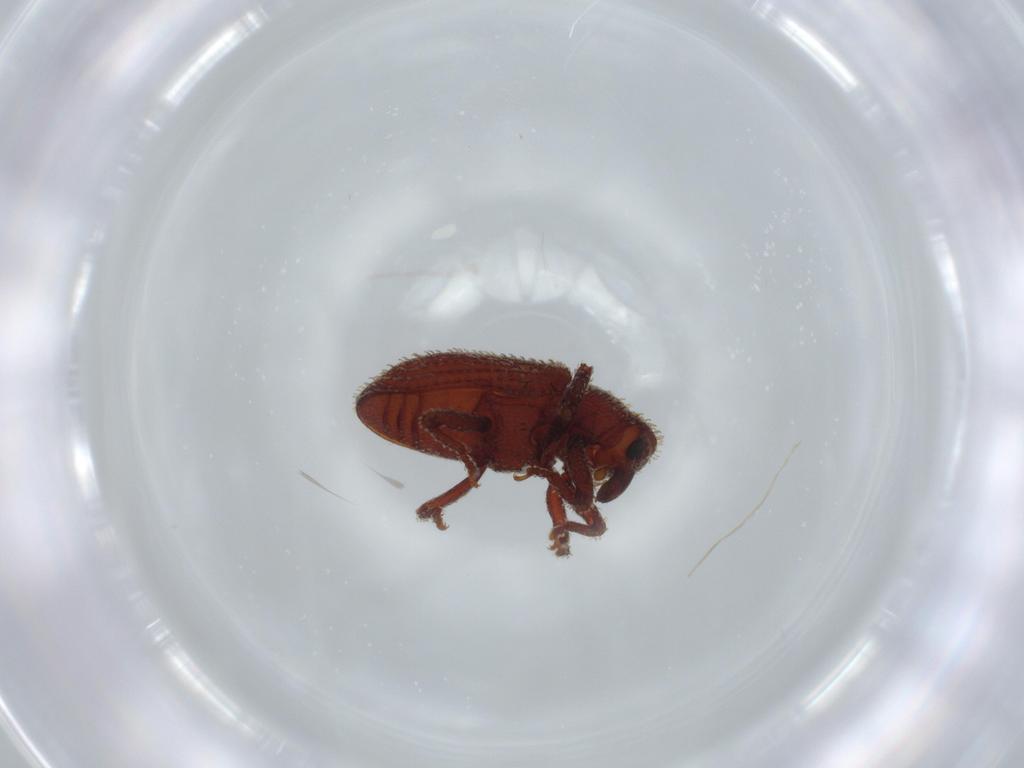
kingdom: Animalia
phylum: Arthropoda
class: Insecta
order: Coleoptera
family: Curculionidae
